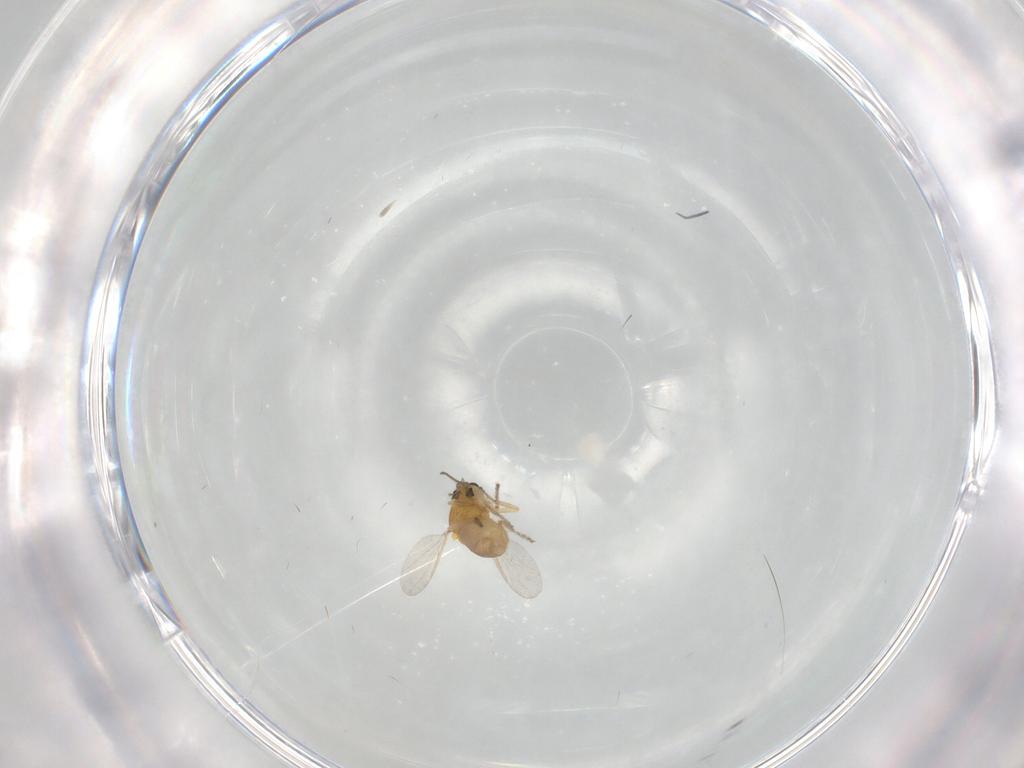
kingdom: Animalia
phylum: Arthropoda
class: Insecta
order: Diptera
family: Ceratopogonidae
